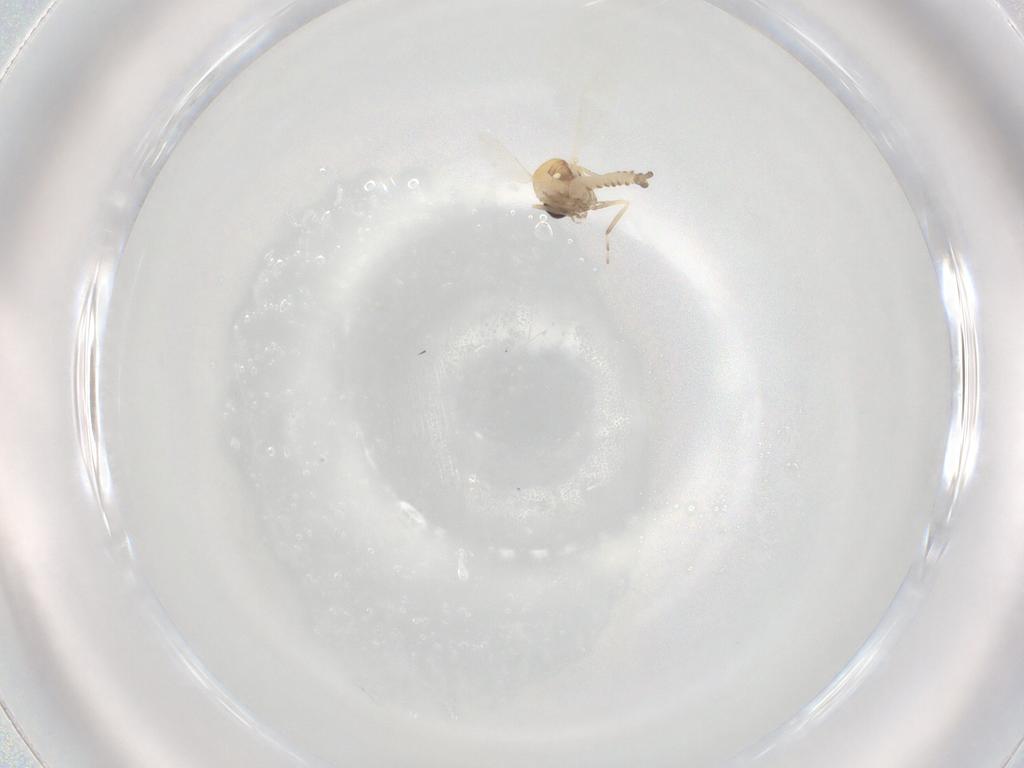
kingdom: Animalia
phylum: Arthropoda
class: Insecta
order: Diptera
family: Ceratopogonidae
